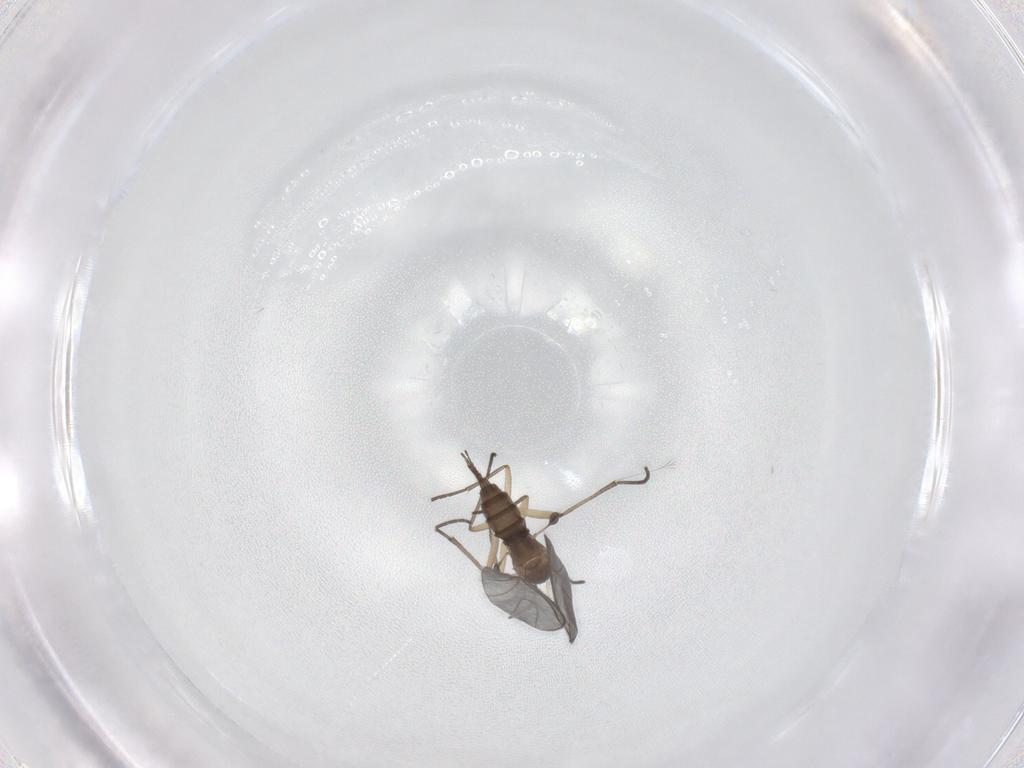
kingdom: Animalia
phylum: Arthropoda
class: Insecta
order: Diptera
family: Sciaridae
